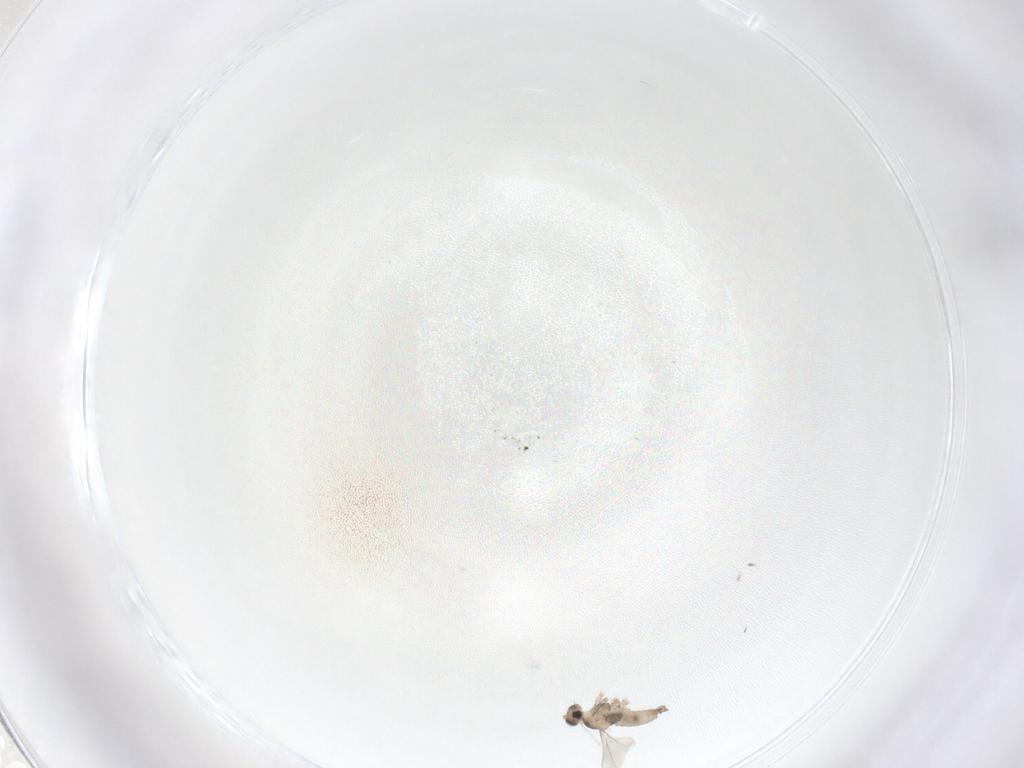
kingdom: Animalia
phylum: Arthropoda
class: Insecta
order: Diptera
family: Cecidomyiidae
